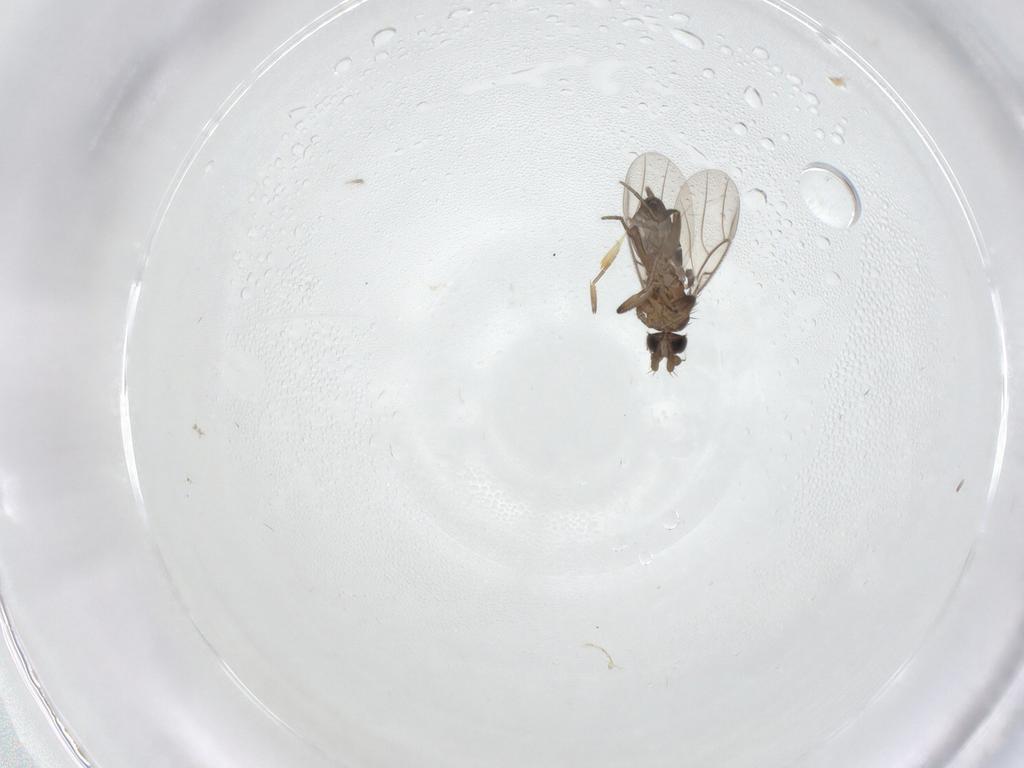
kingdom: Animalia
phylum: Arthropoda
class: Insecta
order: Diptera
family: Phoridae
